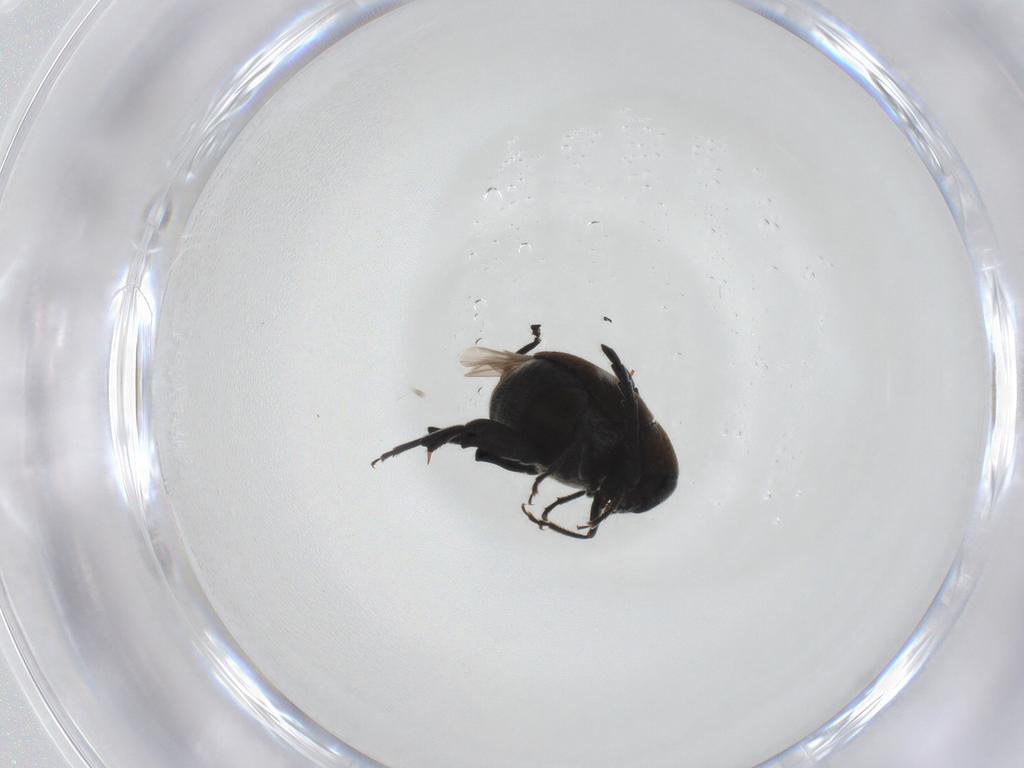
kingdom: Animalia
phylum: Arthropoda
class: Insecta
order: Coleoptera
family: Chrysomelidae
